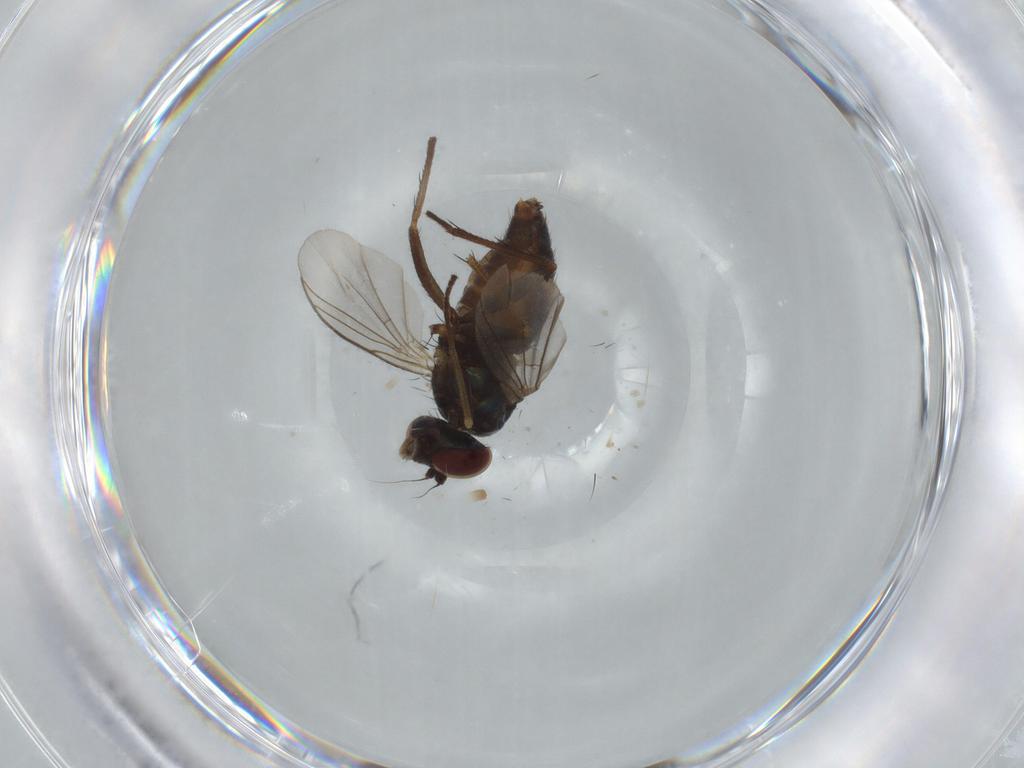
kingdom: Animalia
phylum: Arthropoda
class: Insecta
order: Diptera
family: Dolichopodidae
